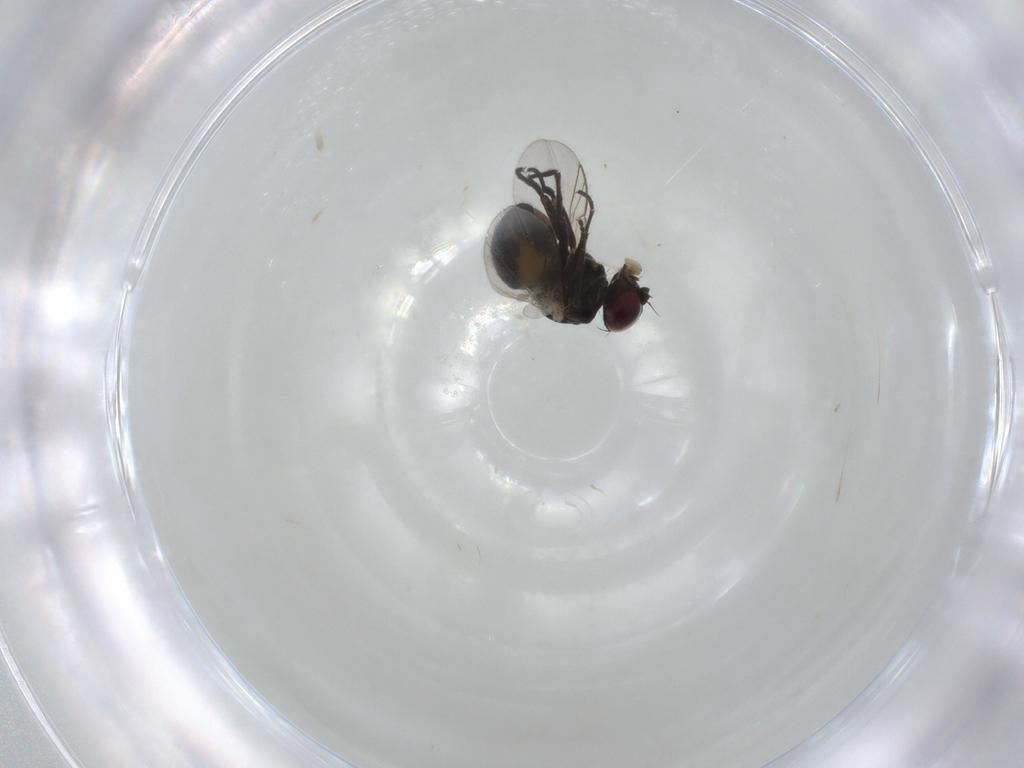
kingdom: Animalia
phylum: Arthropoda
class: Insecta
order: Diptera
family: Agromyzidae
